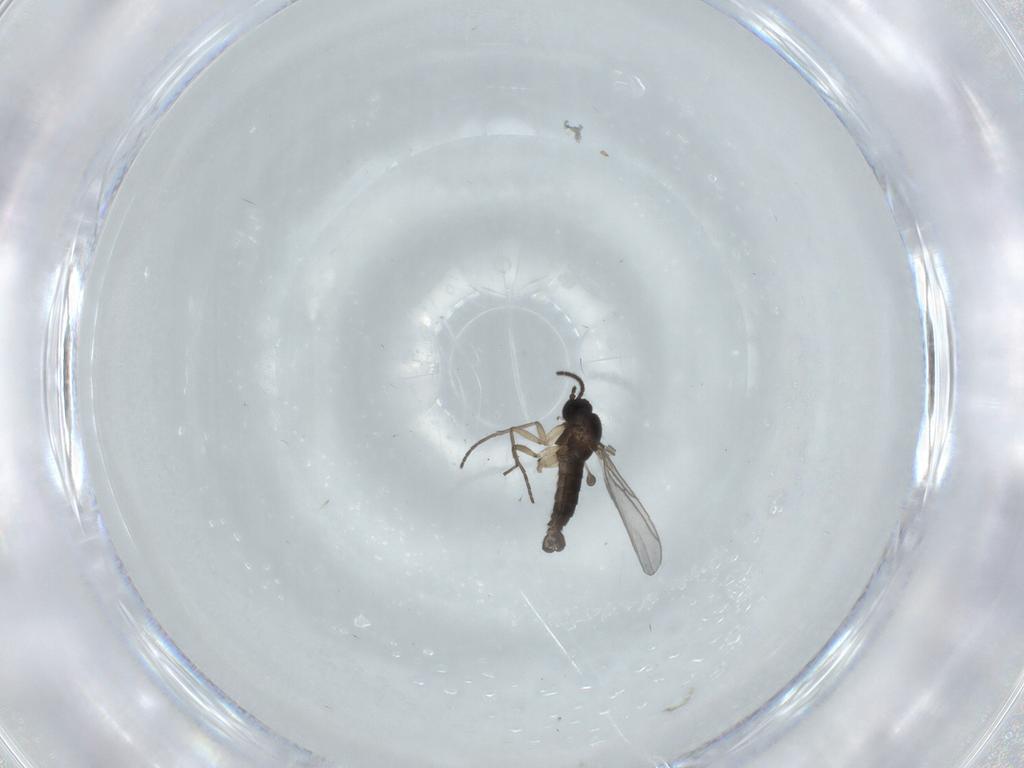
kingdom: Animalia
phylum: Arthropoda
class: Insecta
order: Diptera
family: Sciaridae
